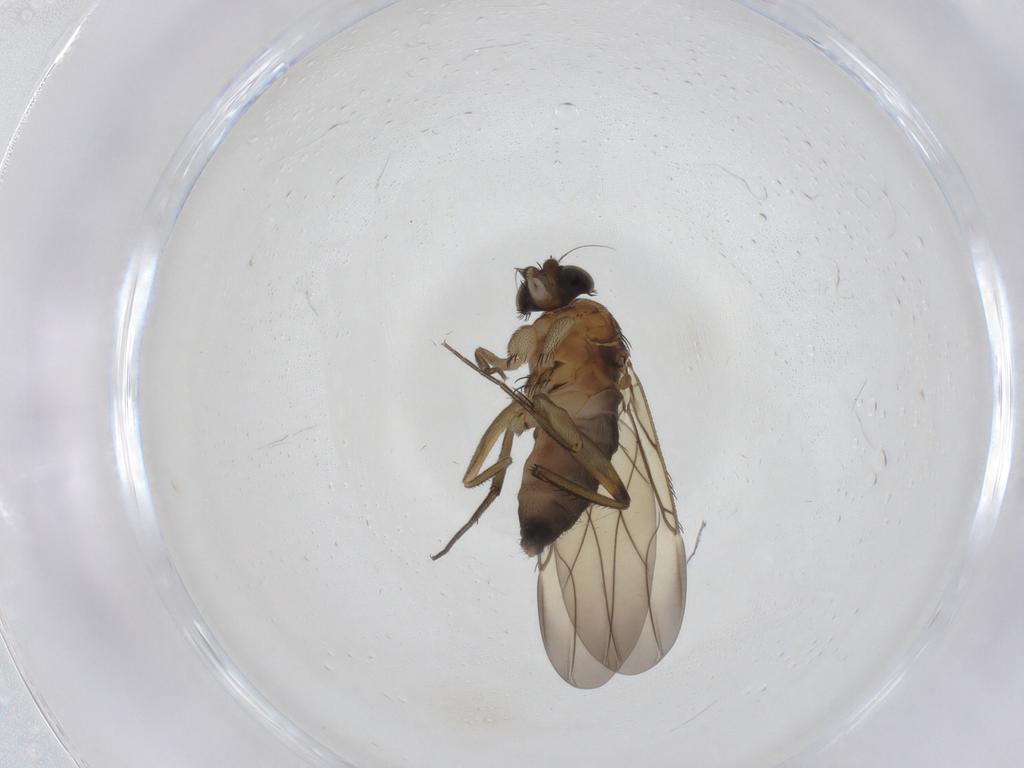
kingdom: Animalia
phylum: Arthropoda
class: Insecta
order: Diptera
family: Phoridae
